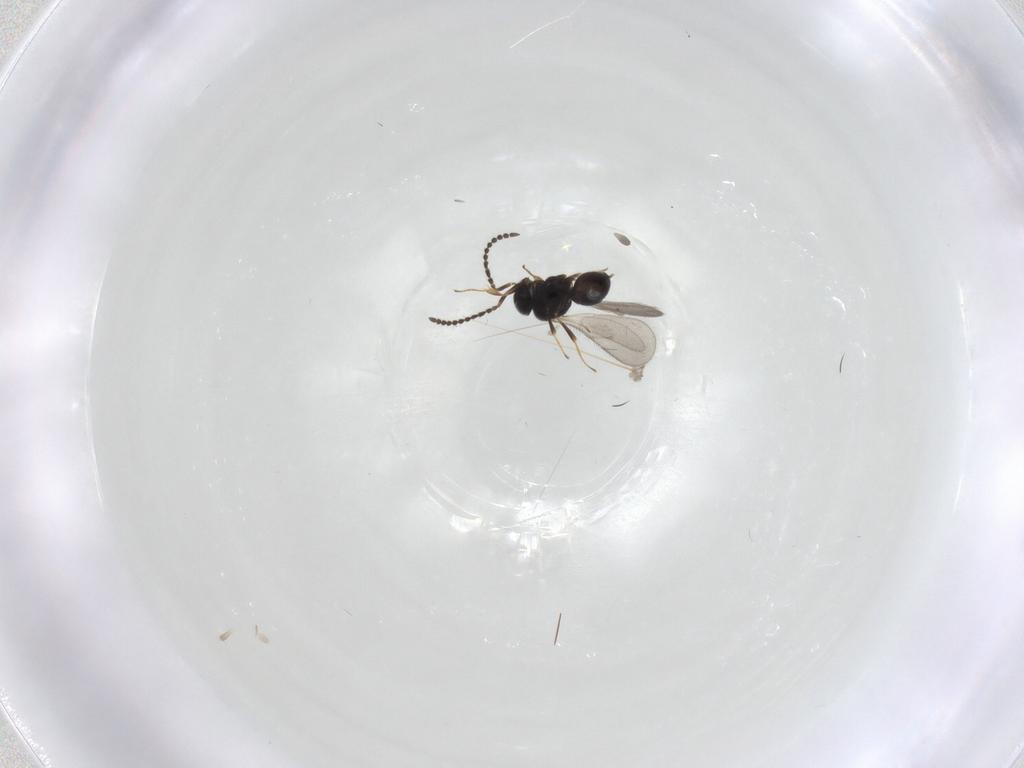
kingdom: Animalia
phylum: Arthropoda
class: Insecta
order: Hymenoptera
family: Scelionidae
